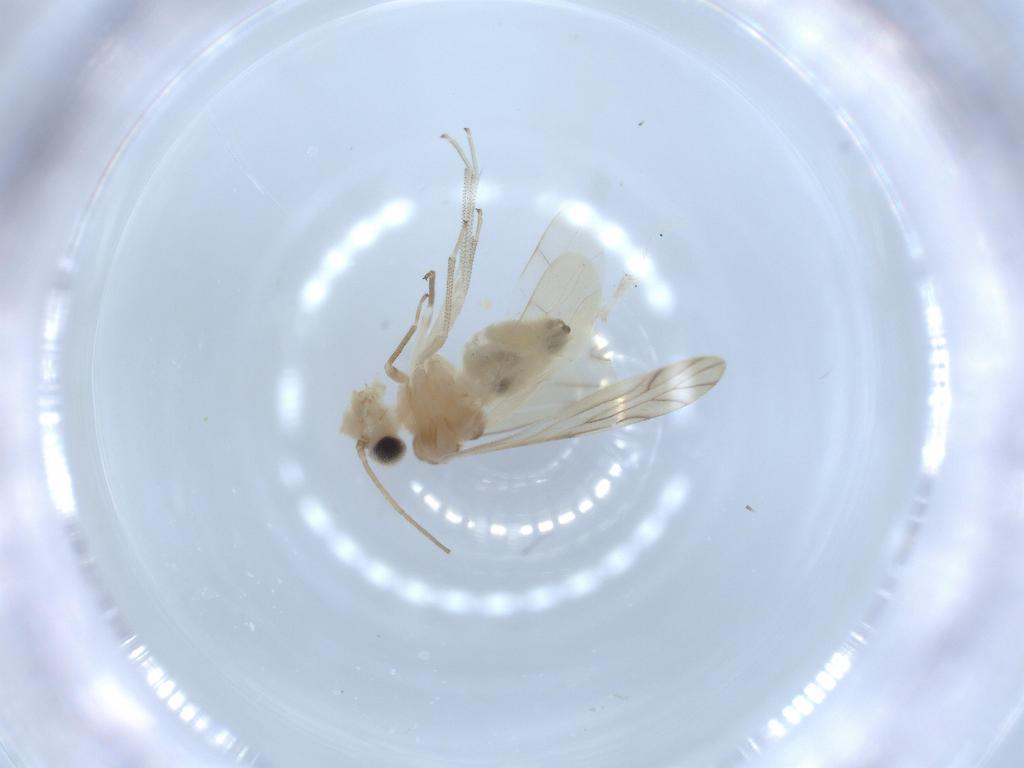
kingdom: Animalia
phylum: Arthropoda
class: Insecta
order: Psocodea
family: Caeciliusidae
